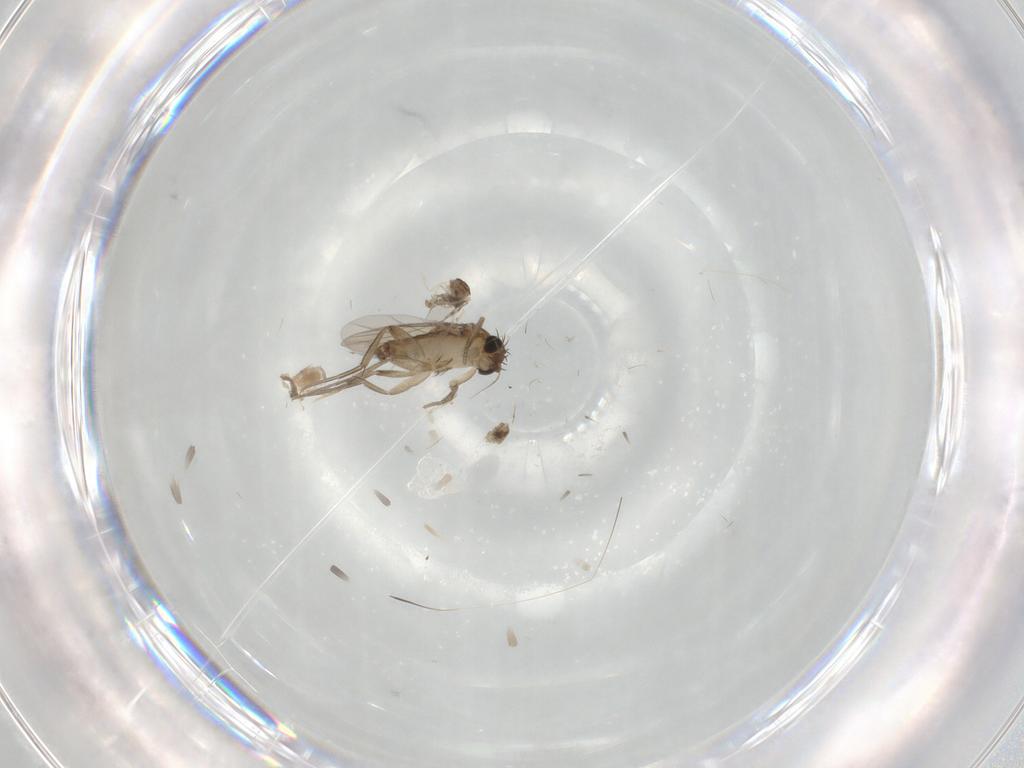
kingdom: Animalia
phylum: Arthropoda
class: Insecta
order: Diptera
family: Cecidomyiidae
